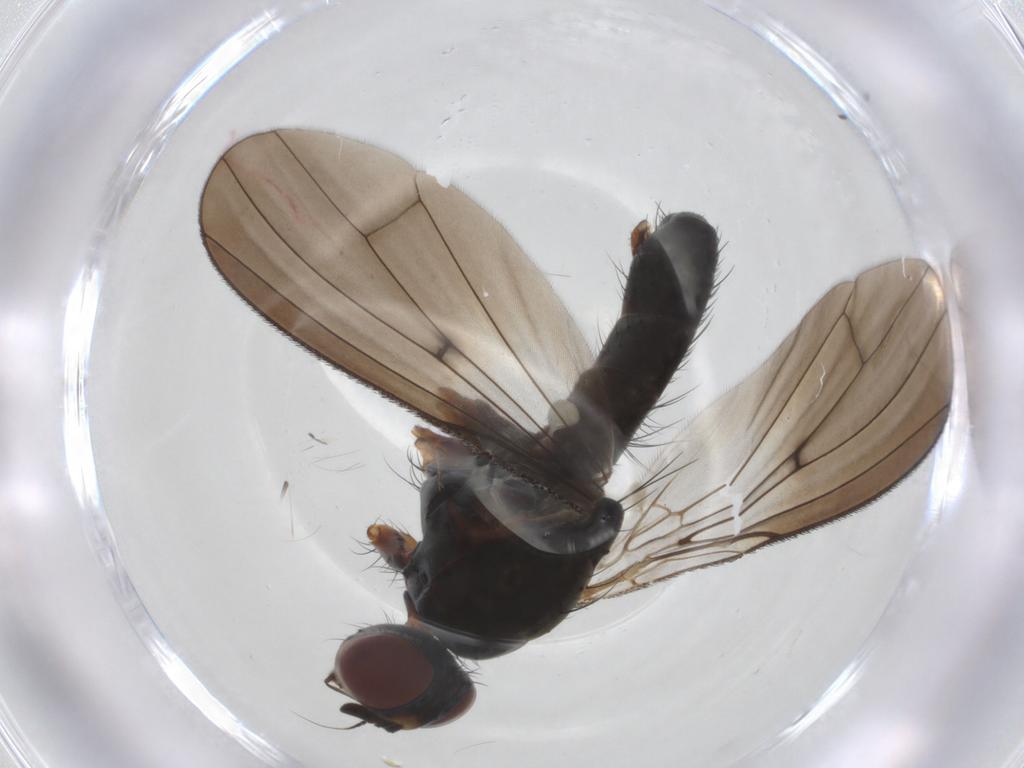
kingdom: Animalia
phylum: Arthropoda
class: Insecta
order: Diptera
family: Anthomyiidae
